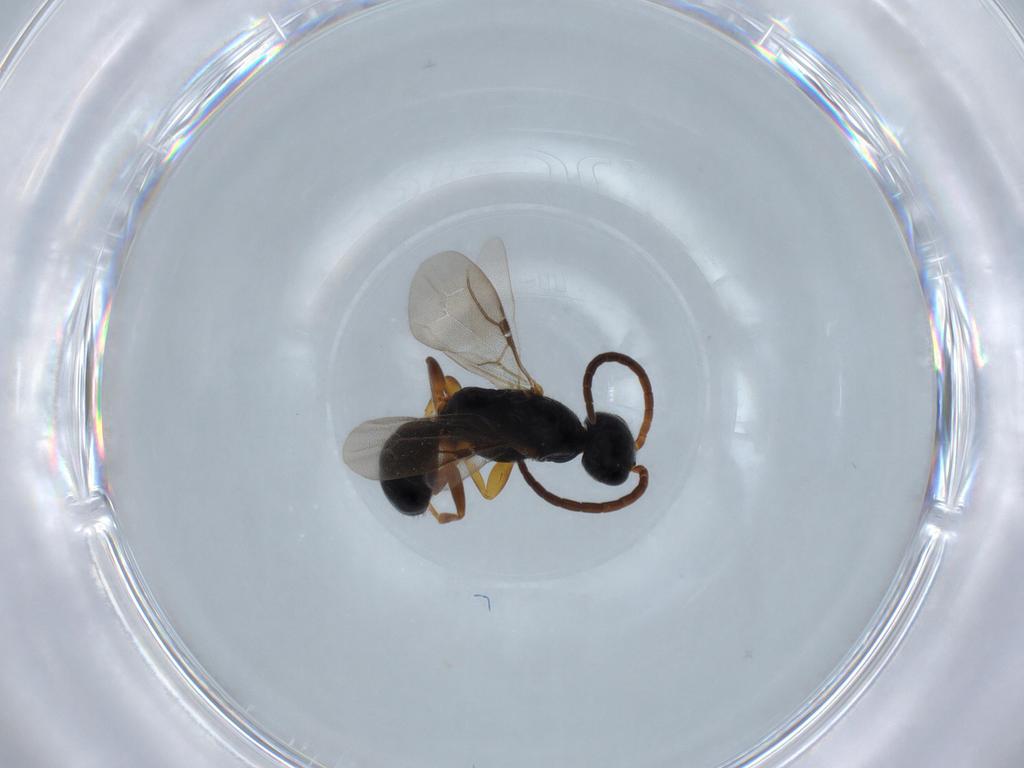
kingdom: Animalia
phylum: Arthropoda
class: Insecta
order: Hymenoptera
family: Bethylidae
